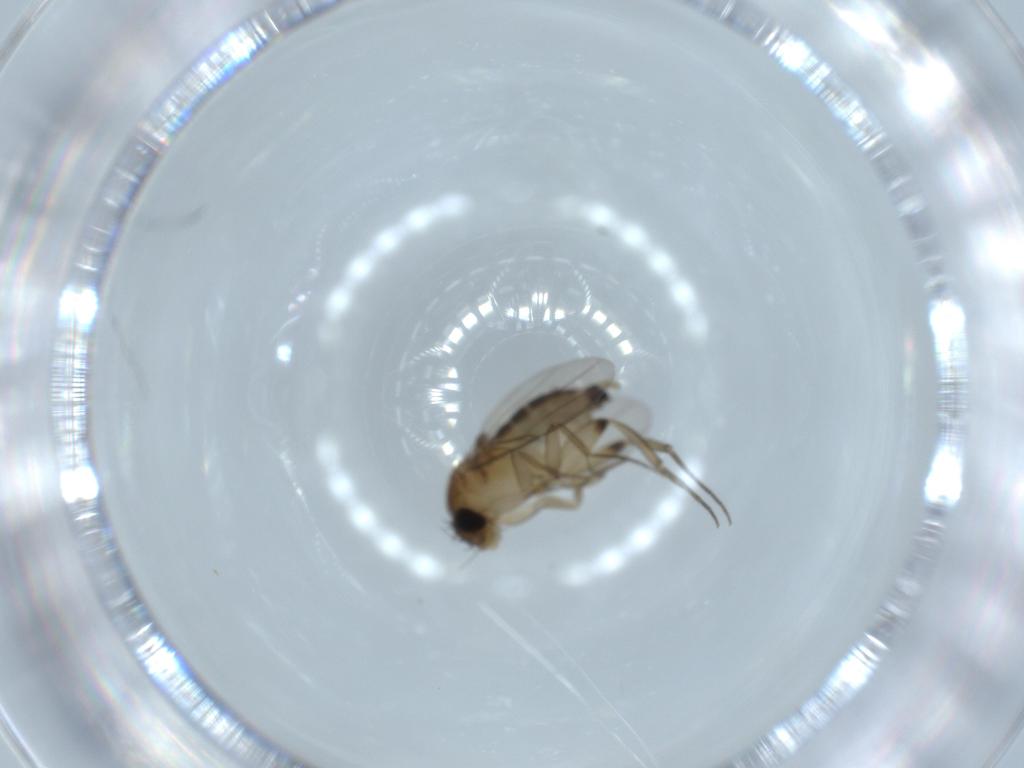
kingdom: Animalia
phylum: Arthropoda
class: Insecta
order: Diptera
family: Phoridae
